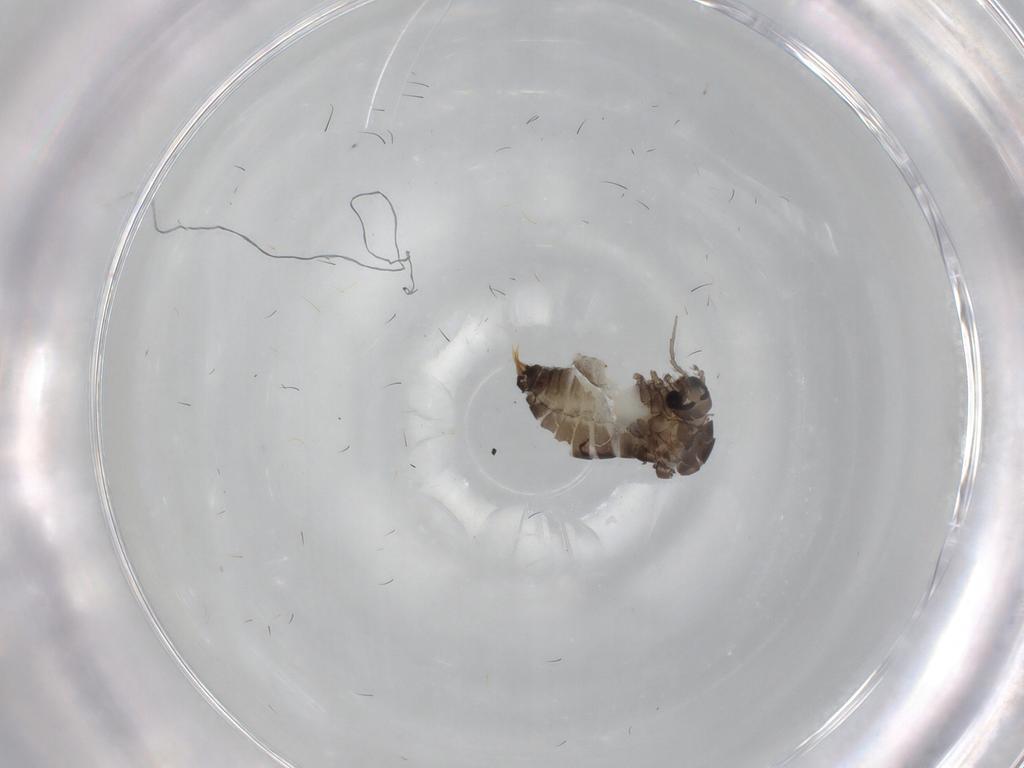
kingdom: Animalia
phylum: Arthropoda
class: Insecta
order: Diptera
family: Psychodidae
